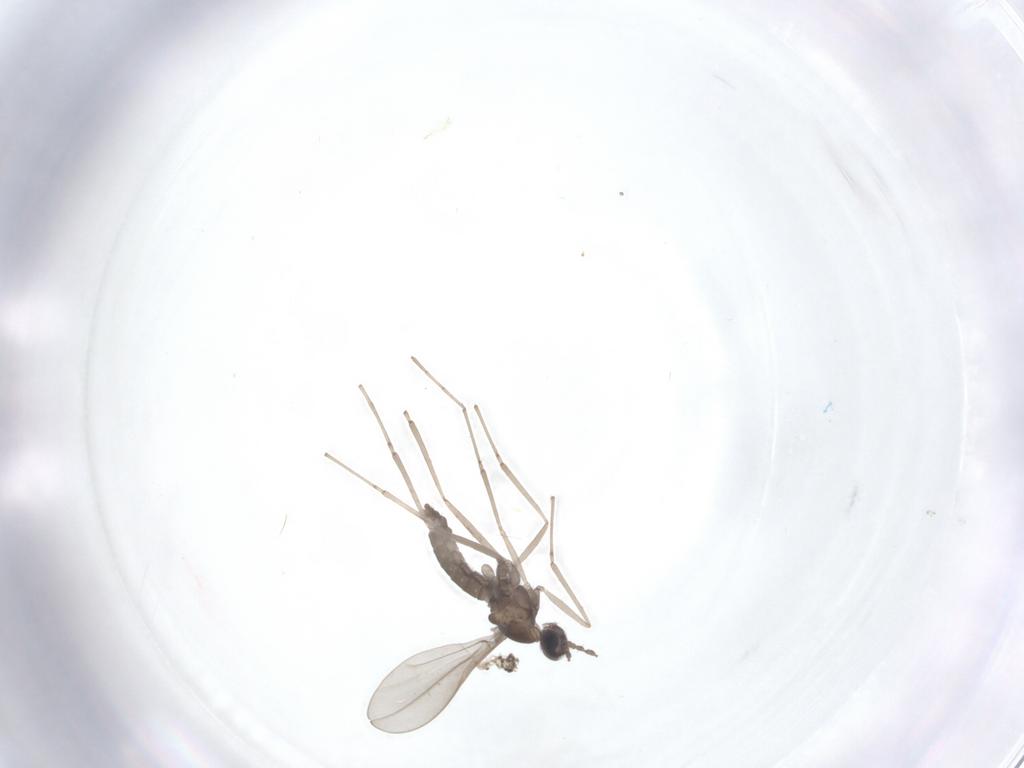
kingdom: Animalia
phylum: Arthropoda
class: Insecta
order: Diptera
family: Cecidomyiidae
